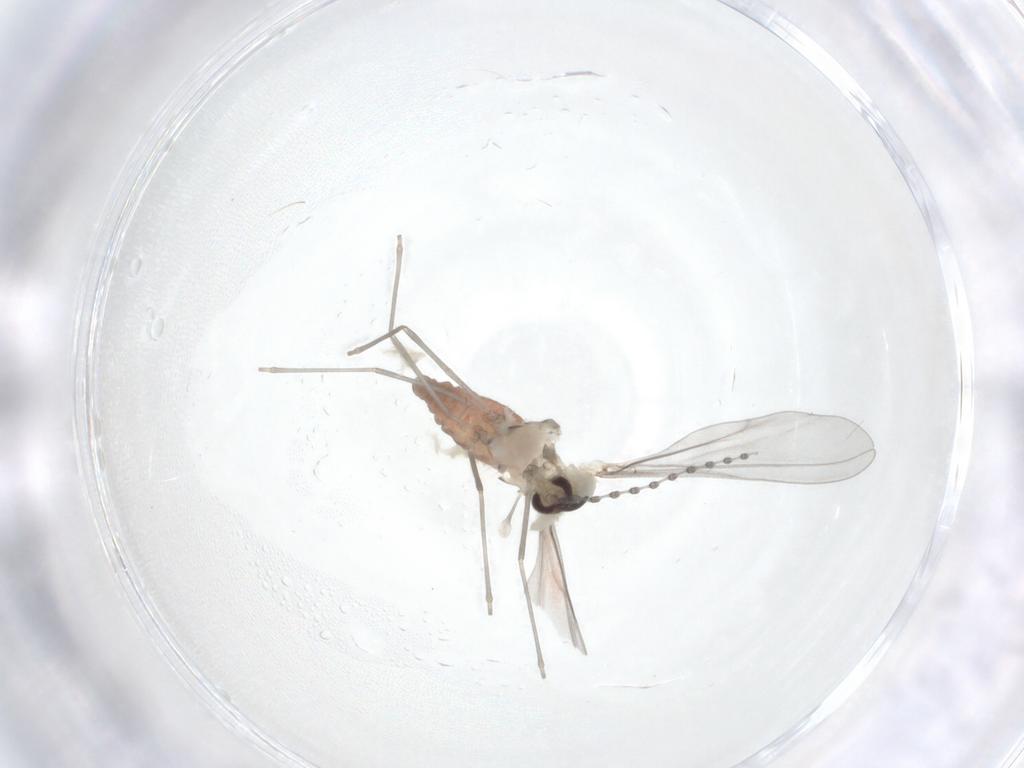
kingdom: Animalia
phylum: Arthropoda
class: Insecta
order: Diptera
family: Cecidomyiidae
